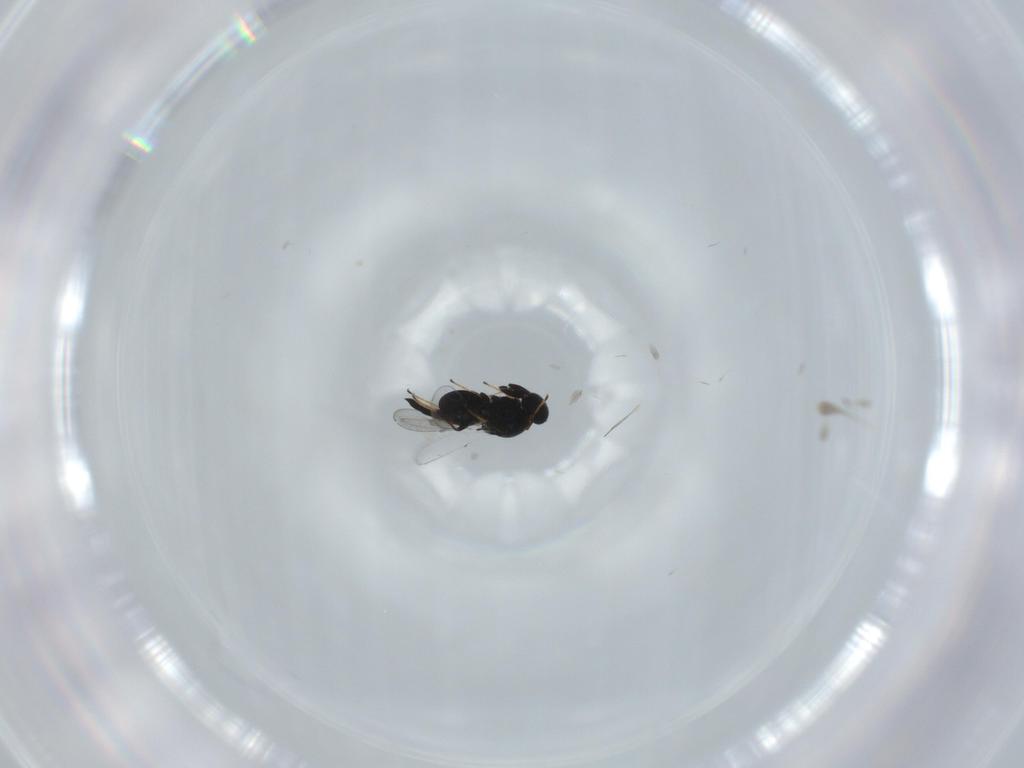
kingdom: Animalia
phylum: Arthropoda
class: Insecta
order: Hymenoptera
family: Platygastridae
